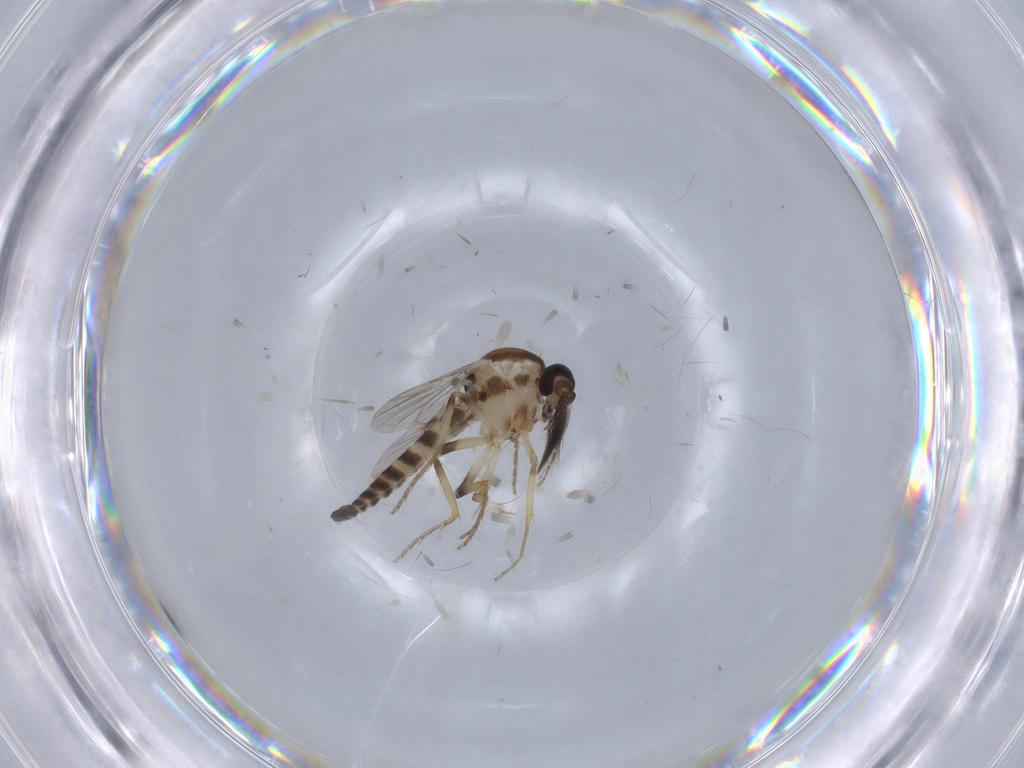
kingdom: Animalia
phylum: Arthropoda
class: Insecta
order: Diptera
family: Ceratopogonidae
